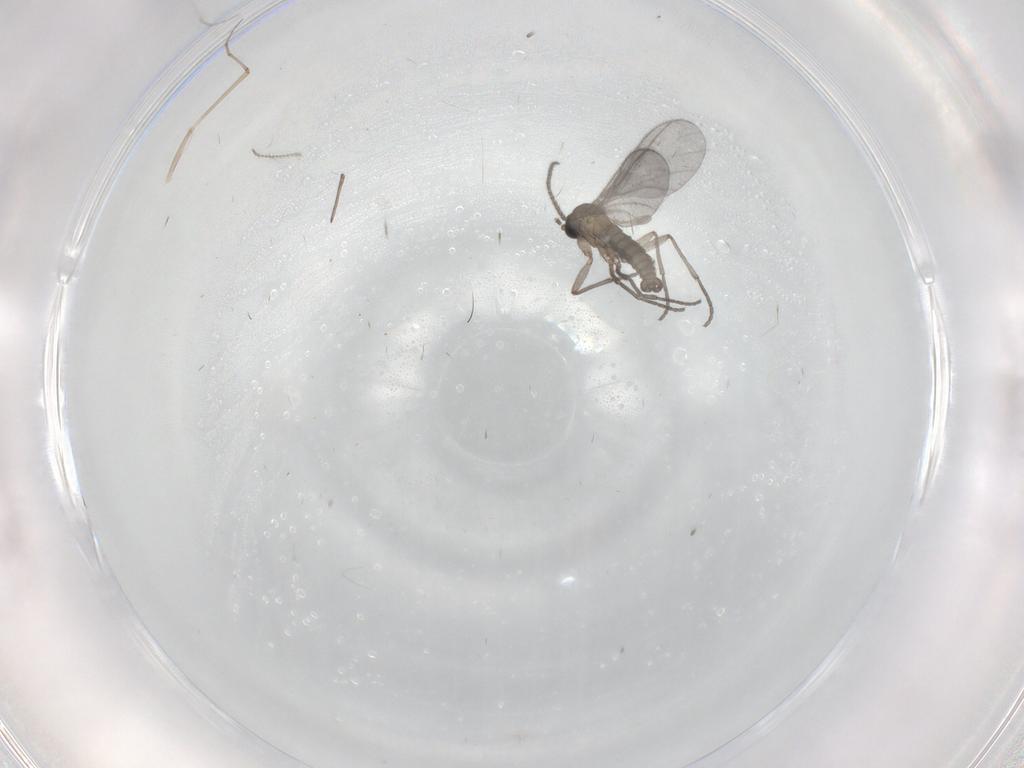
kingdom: Animalia
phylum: Arthropoda
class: Insecta
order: Diptera
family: Sciaridae
